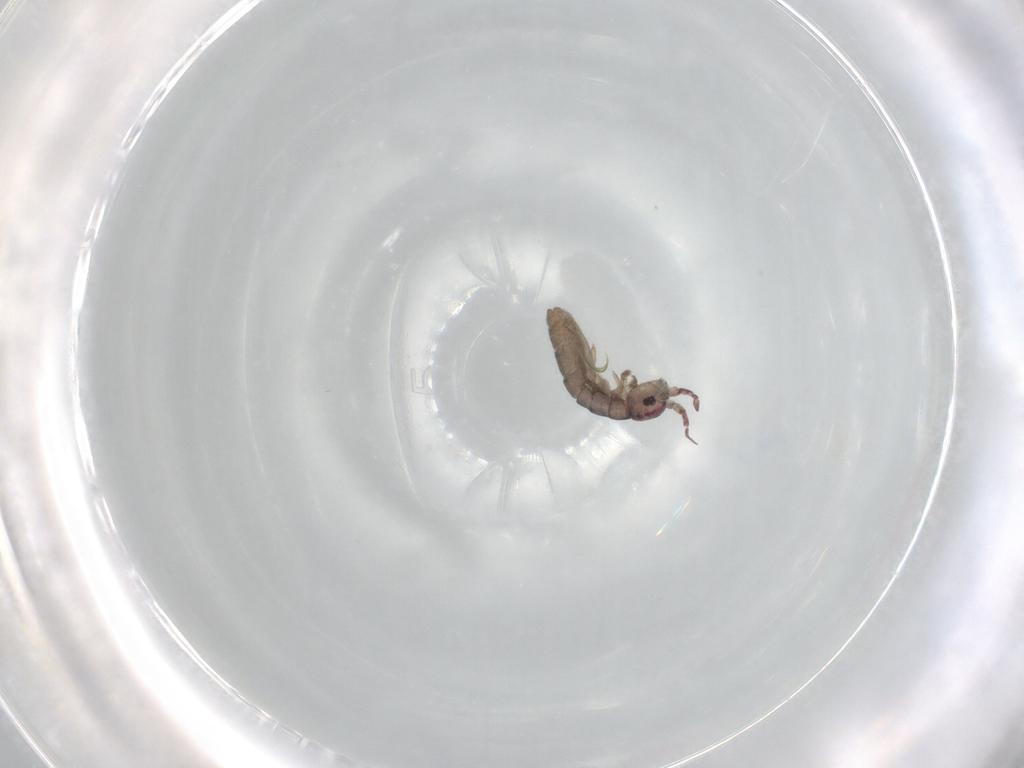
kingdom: Animalia
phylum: Arthropoda
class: Collembola
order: Entomobryomorpha
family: Isotomidae
